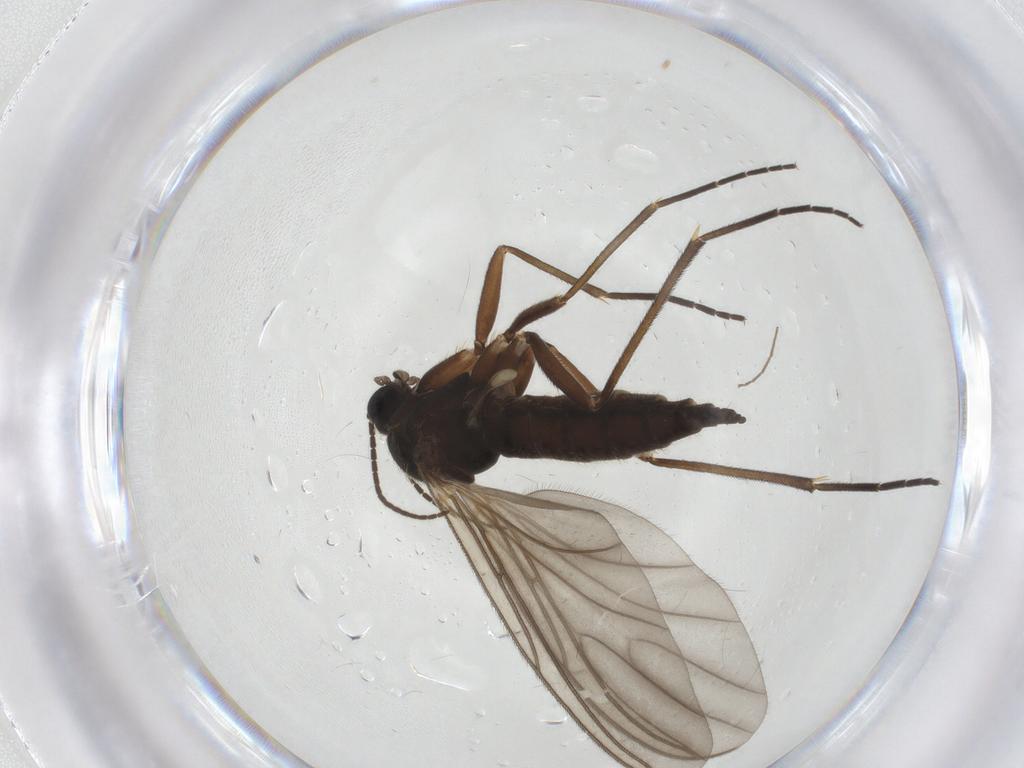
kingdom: Animalia
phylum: Arthropoda
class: Insecta
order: Diptera
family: Sciaridae
